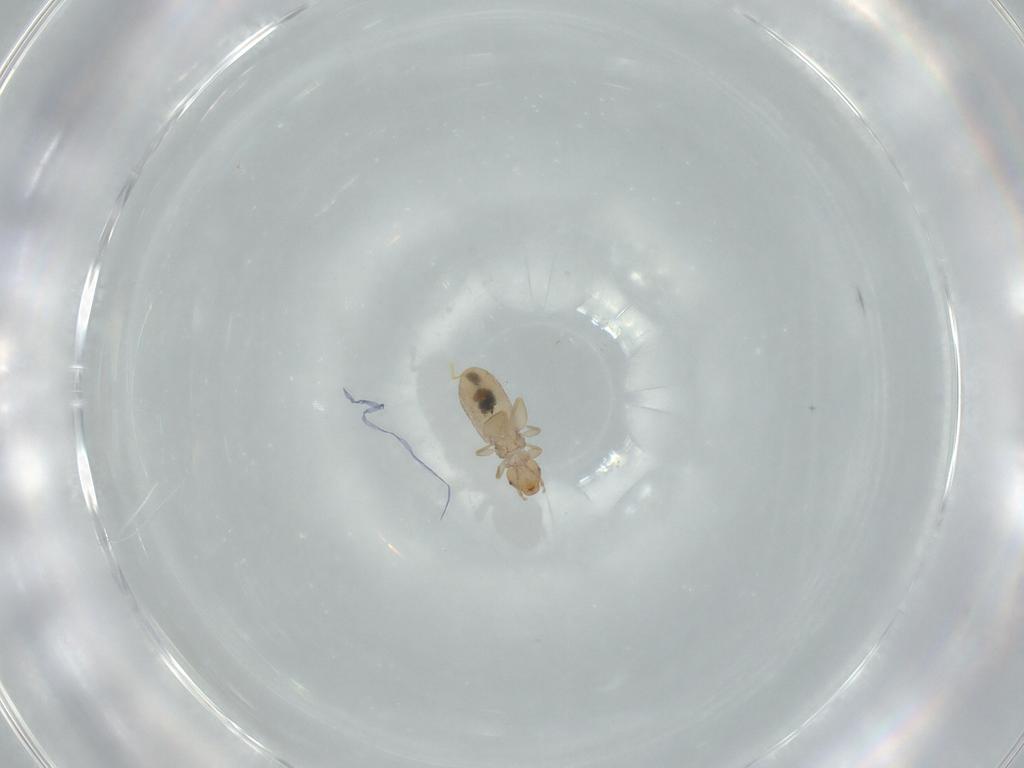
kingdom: Animalia
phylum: Arthropoda
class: Insecta
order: Psocodea
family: Liposcelididae
